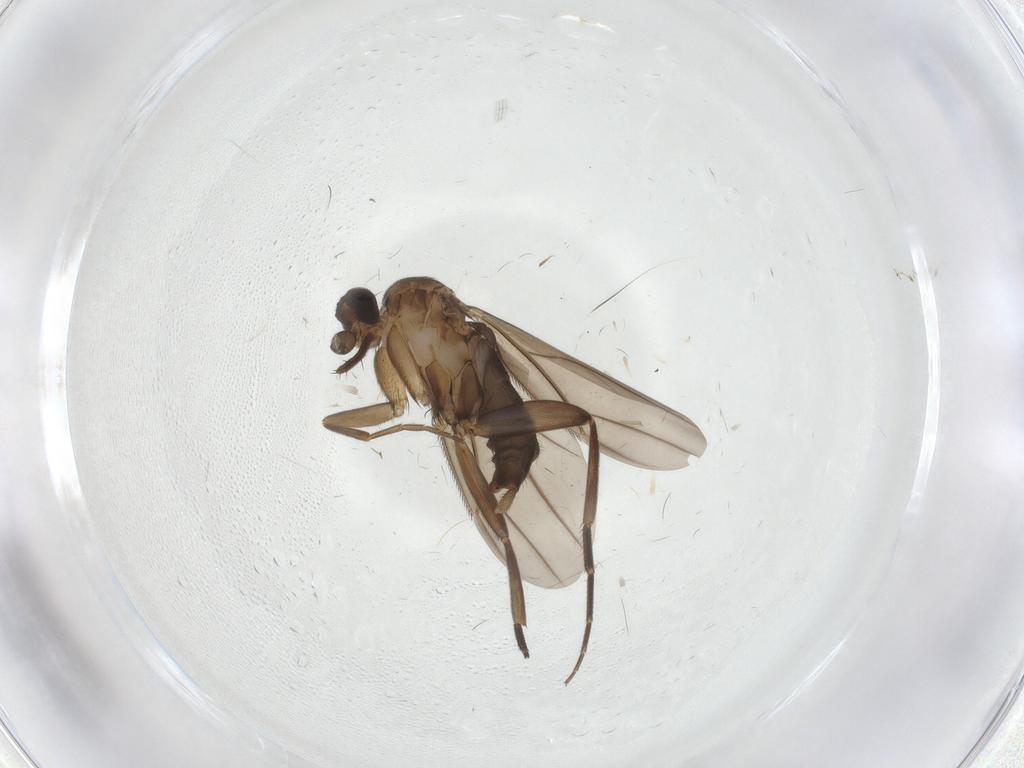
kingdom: Animalia
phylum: Arthropoda
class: Insecta
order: Diptera
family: Phoridae
